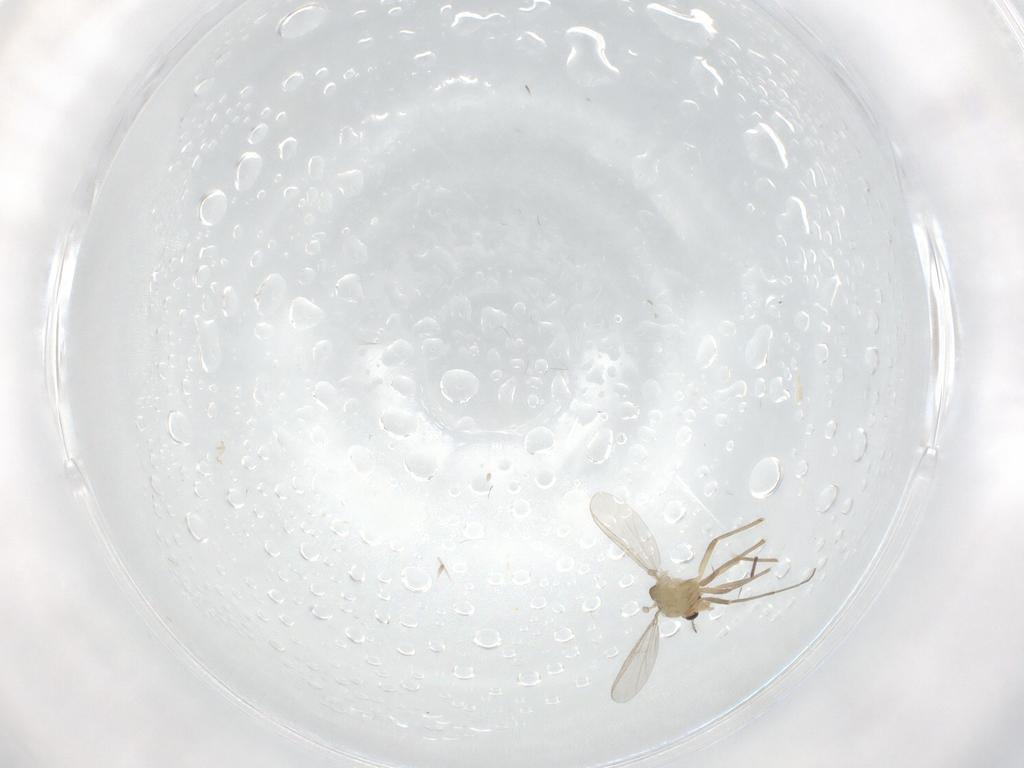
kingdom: Animalia
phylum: Arthropoda
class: Insecta
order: Diptera
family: Chironomidae
